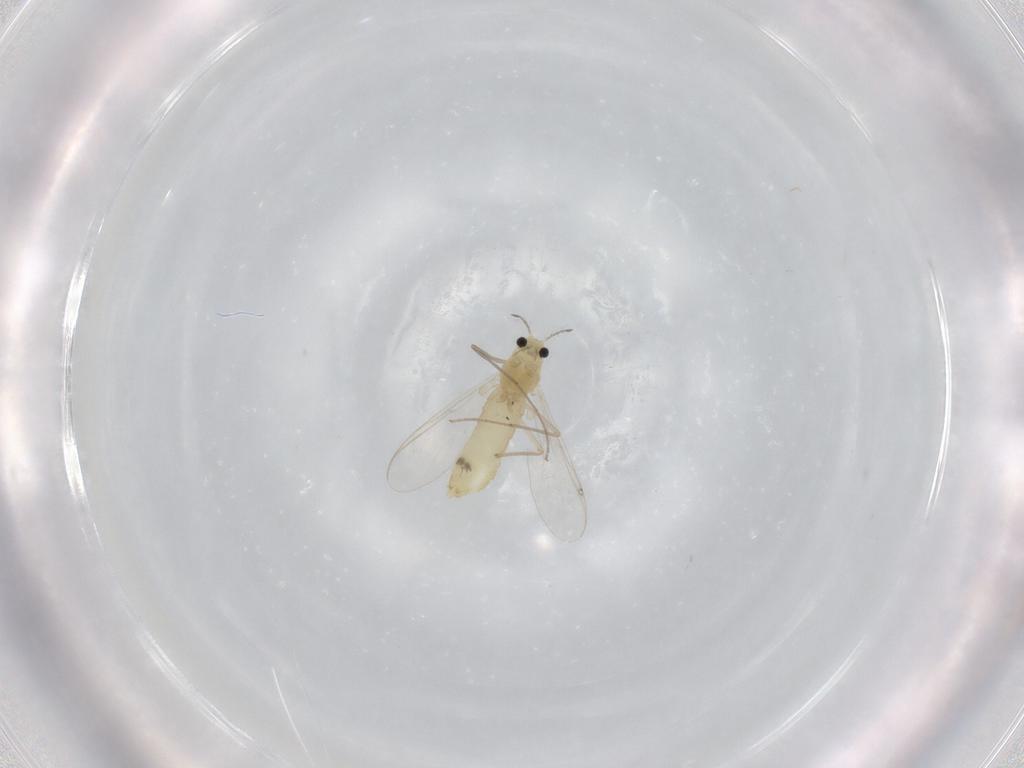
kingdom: Animalia
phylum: Arthropoda
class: Insecta
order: Diptera
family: Chironomidae
